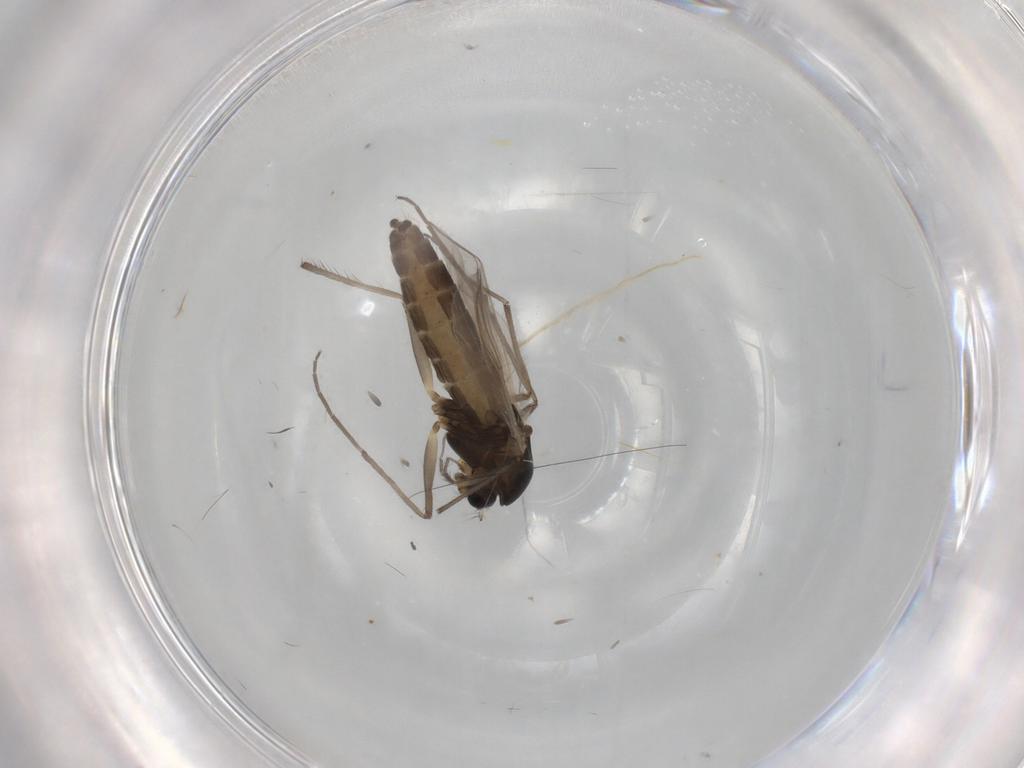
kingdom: Animalia
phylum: Arthropoda
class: Insecta
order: Diptera
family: Chironomidae
